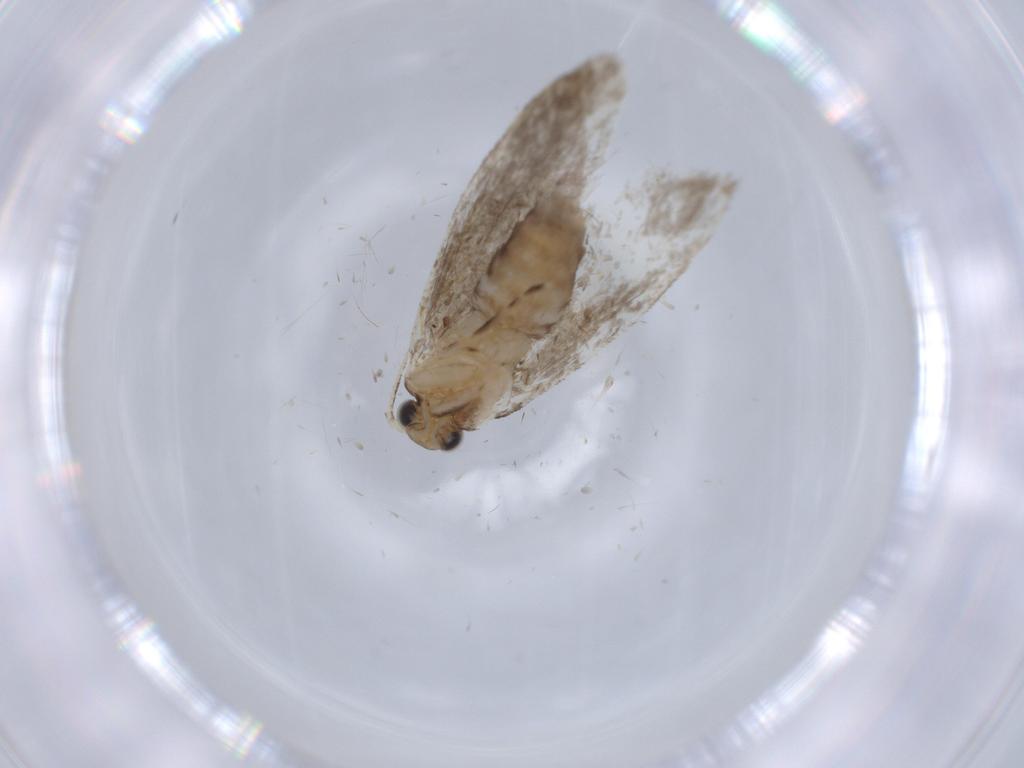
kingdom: Animalia
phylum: Arthropoda
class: Insecta
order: Lepidoptera
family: Tineidae
